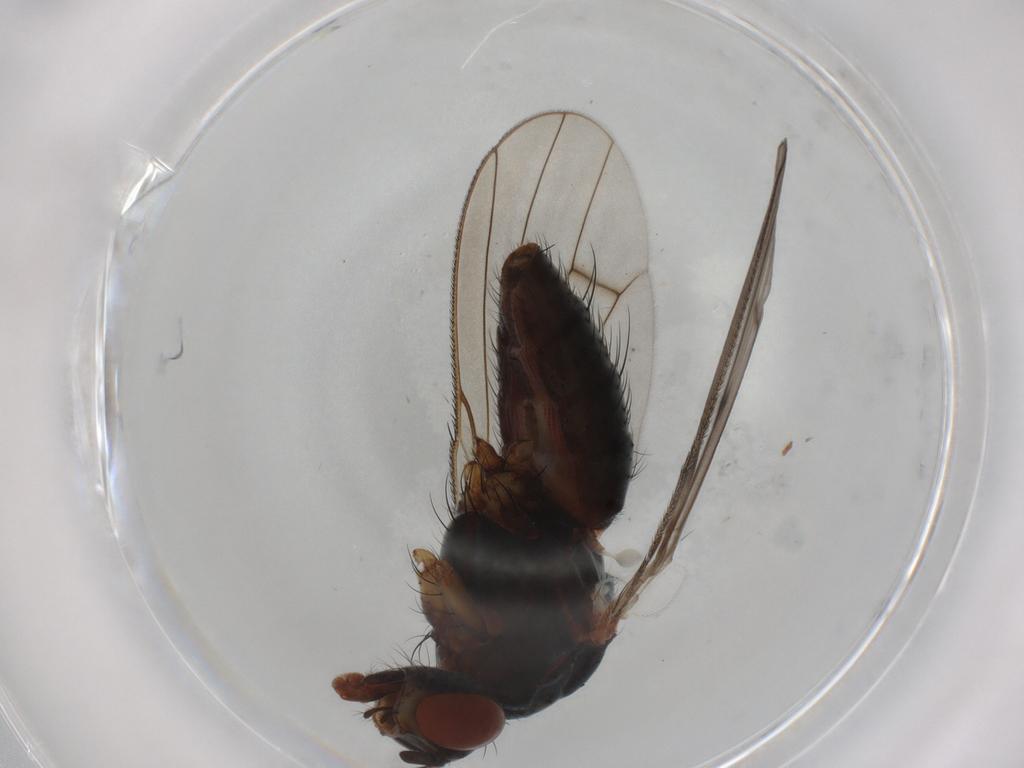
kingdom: Animalia
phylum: Arthropoda
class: Insecta
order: Diptera
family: Anthomyiidae
